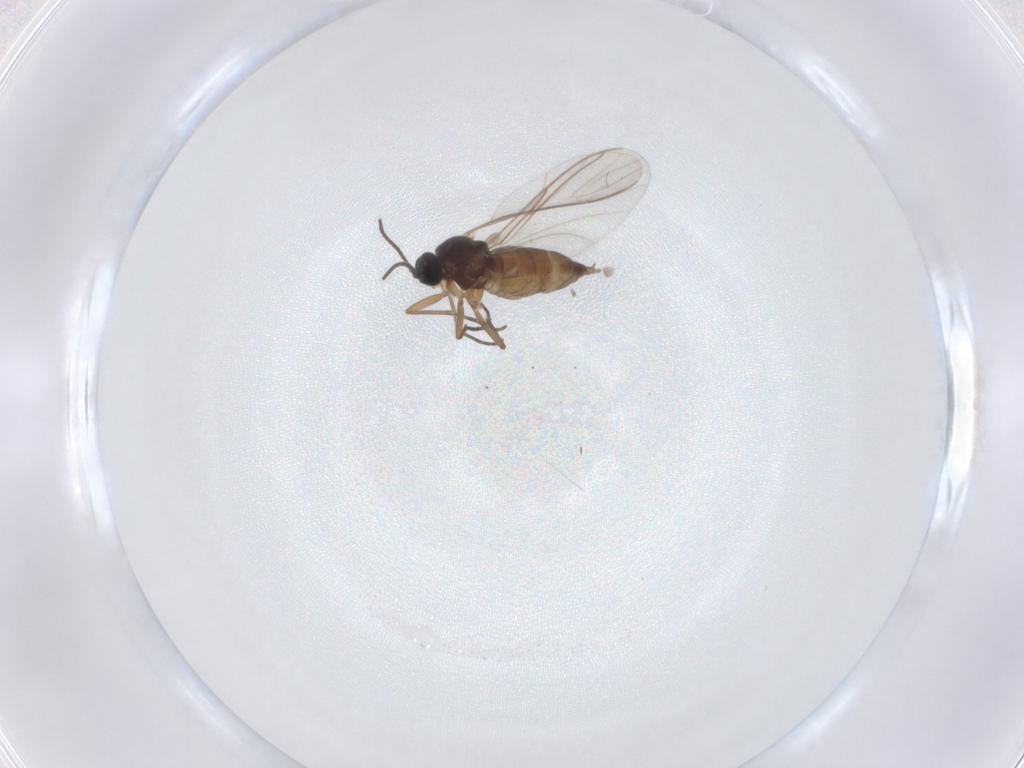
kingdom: Animalia
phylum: Arthropoda
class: Insecta
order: Diptera
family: Sciaridae
